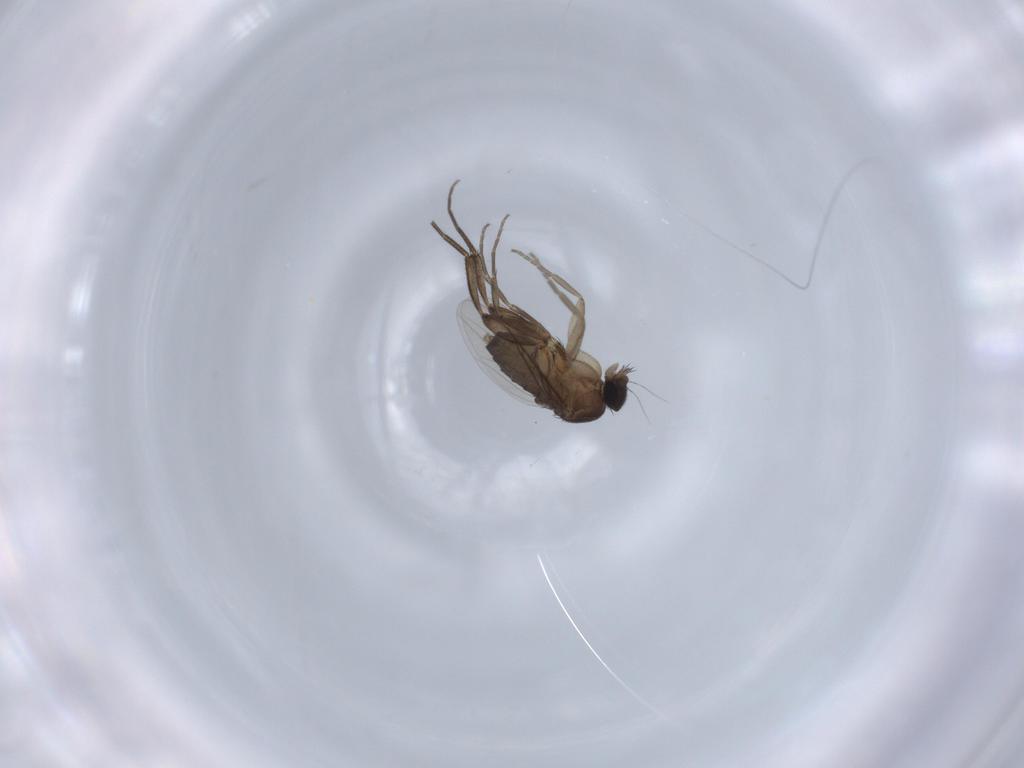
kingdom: Animalia
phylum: Arthropoda
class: Insecta
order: Diptera
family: Phoridae
